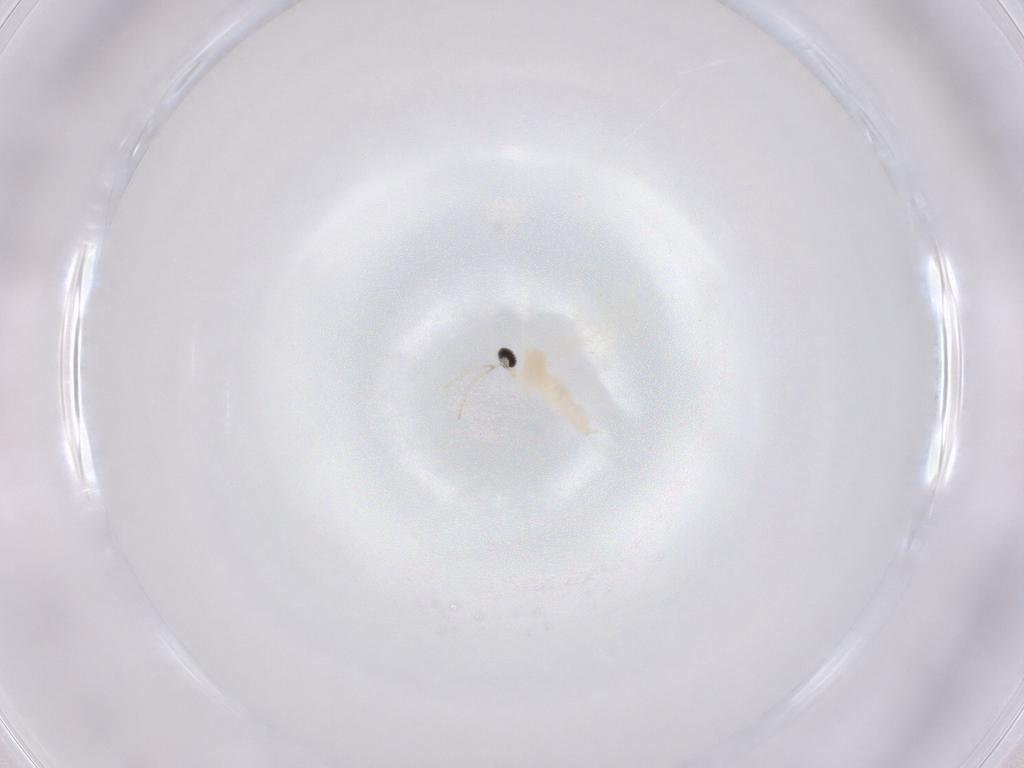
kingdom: Animalia
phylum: Arthropoda
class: Insecta
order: Diptera
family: Cecidomyiidae
